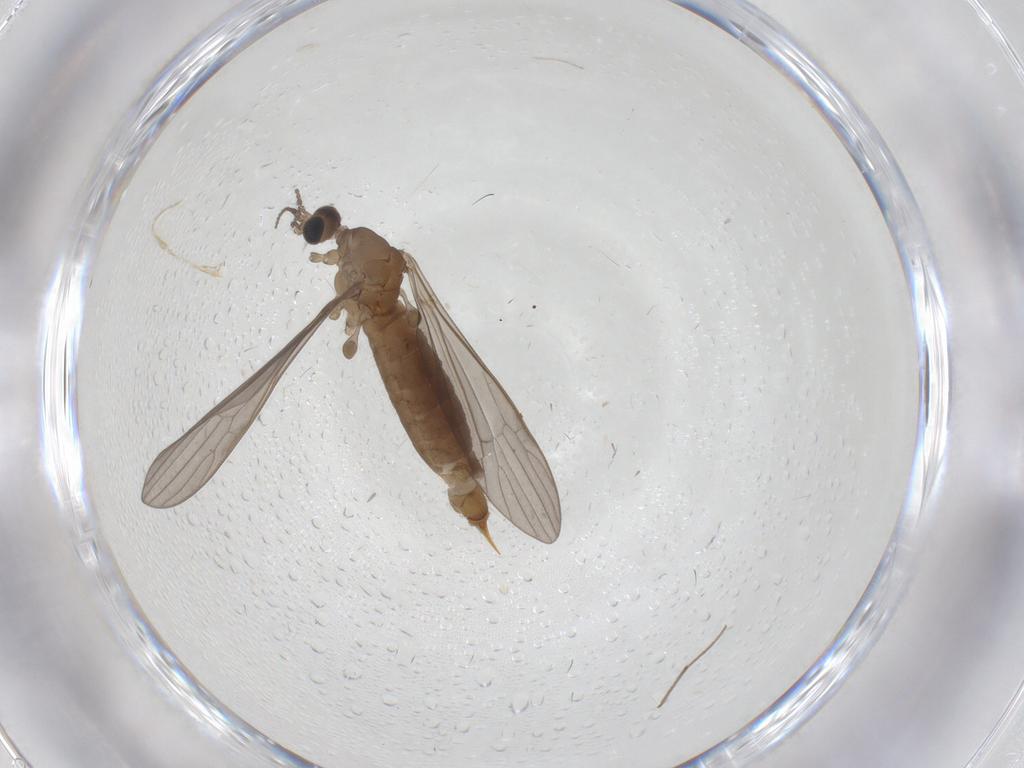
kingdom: Animalia
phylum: Arthropoda
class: Insecta
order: Diptera
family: Limoniidae
